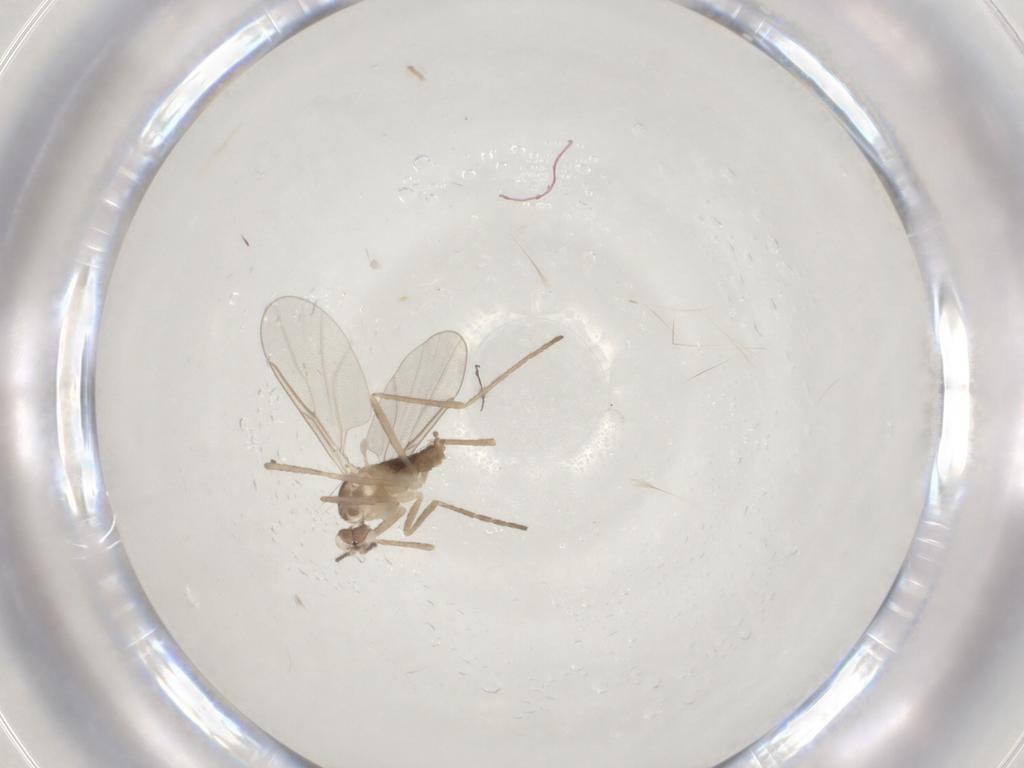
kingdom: Animalia
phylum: Arthropoda
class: Insecta
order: Diptera
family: Cecidomyiidae
